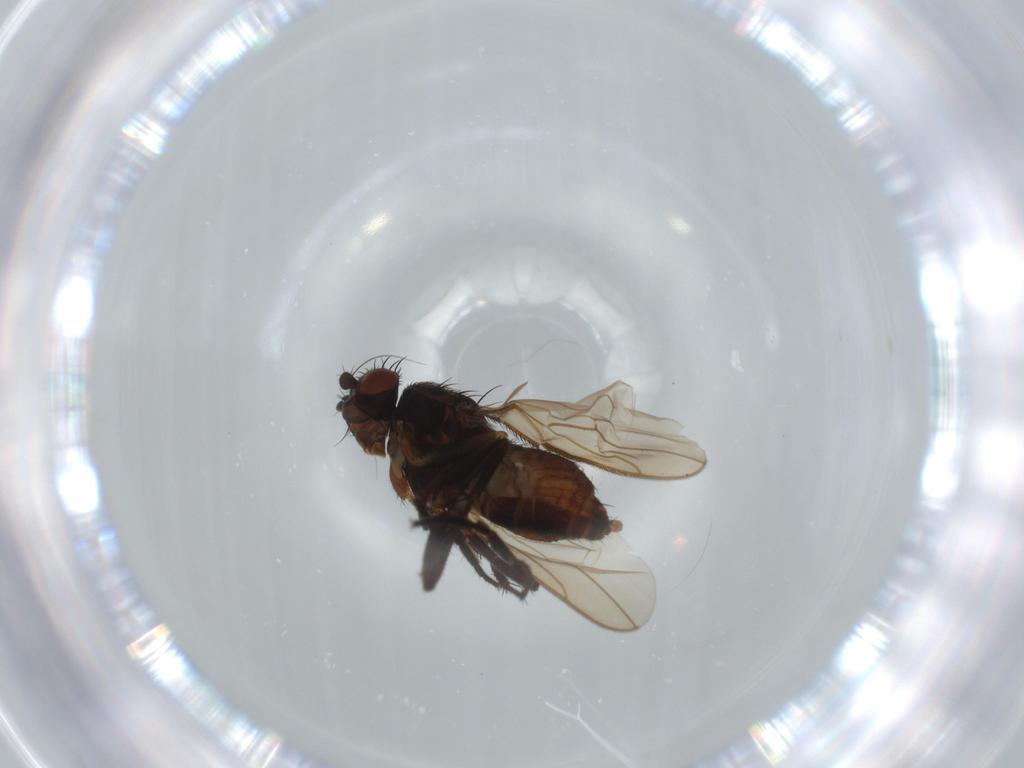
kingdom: Animalia
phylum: Arthropoda
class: Insecta
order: Diptera
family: Sphaeroceridae
